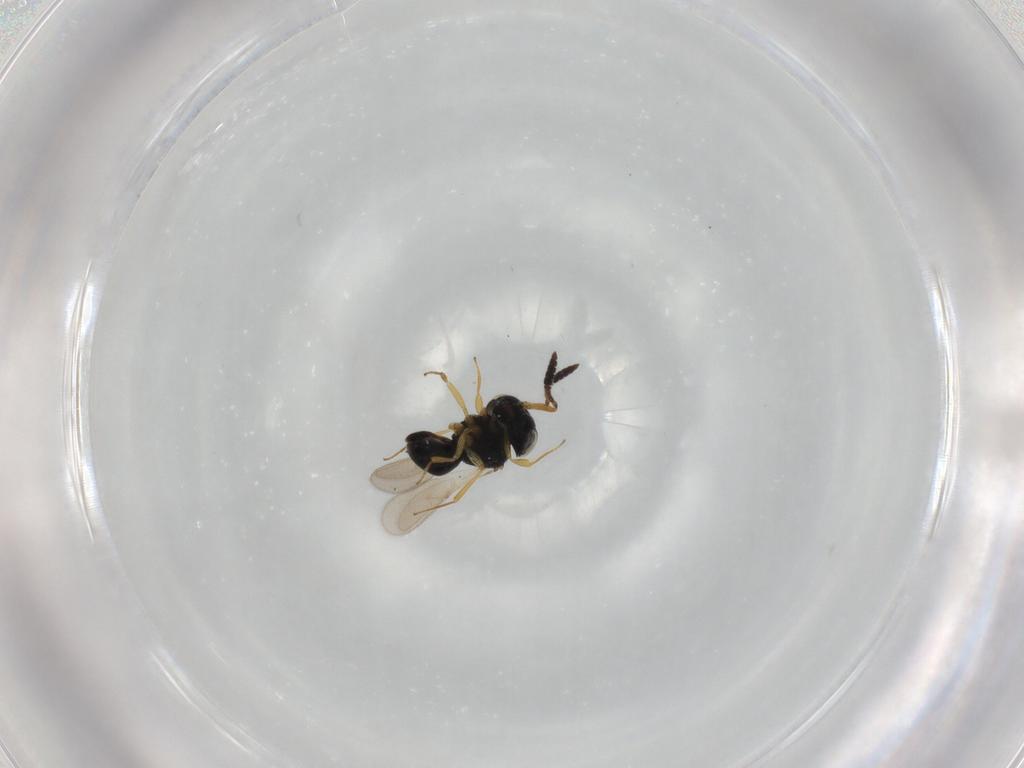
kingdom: Animalia
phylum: Arthropoda
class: Insecta
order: Hymenoptera
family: Scelionidae
